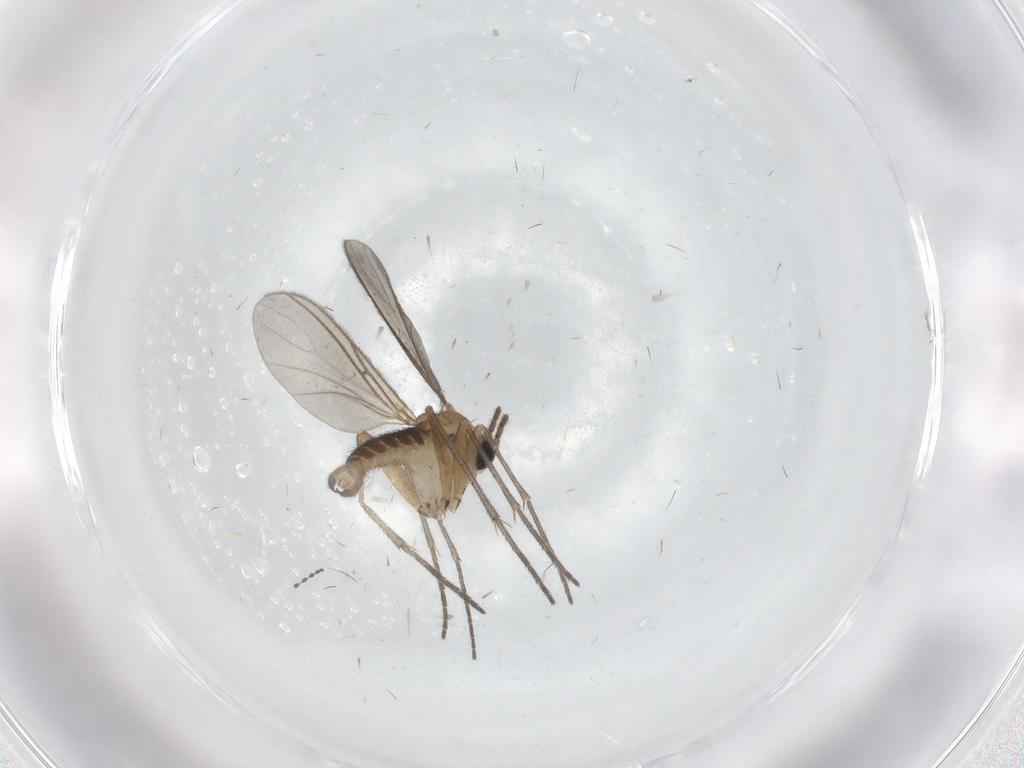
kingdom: Animalia
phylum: Arthropoda
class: Insecta
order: Diptera
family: Sciaridae
